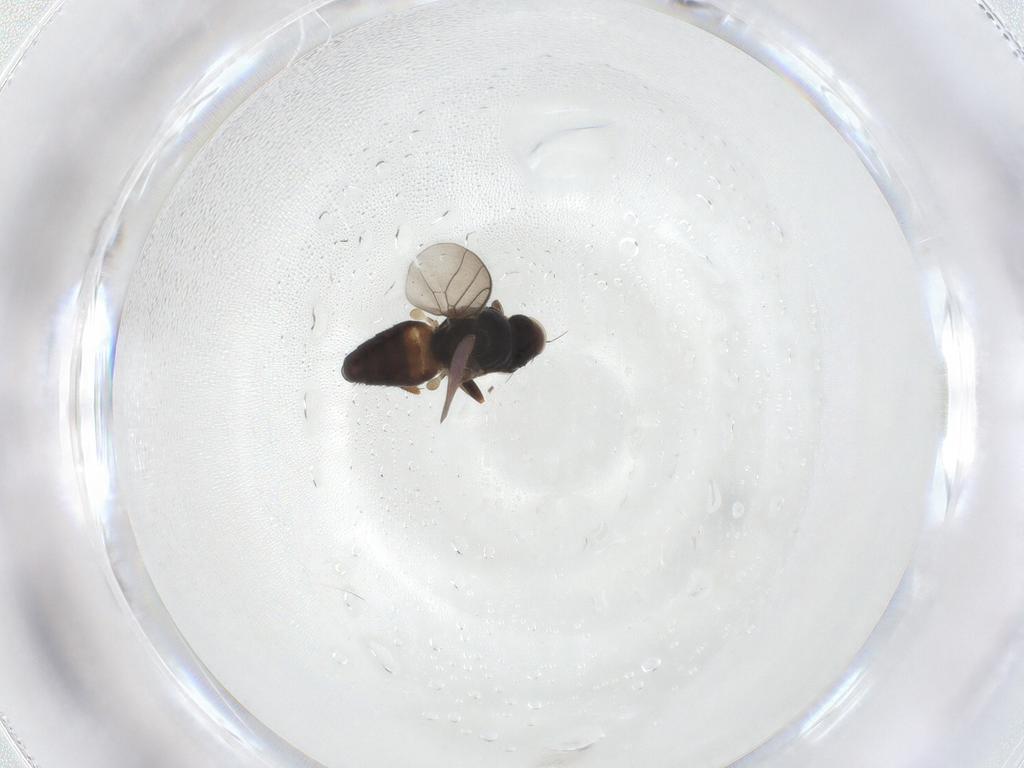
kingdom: Animalia
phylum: Arthropoda
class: Insecta
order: Diptera
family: Chloropidae
